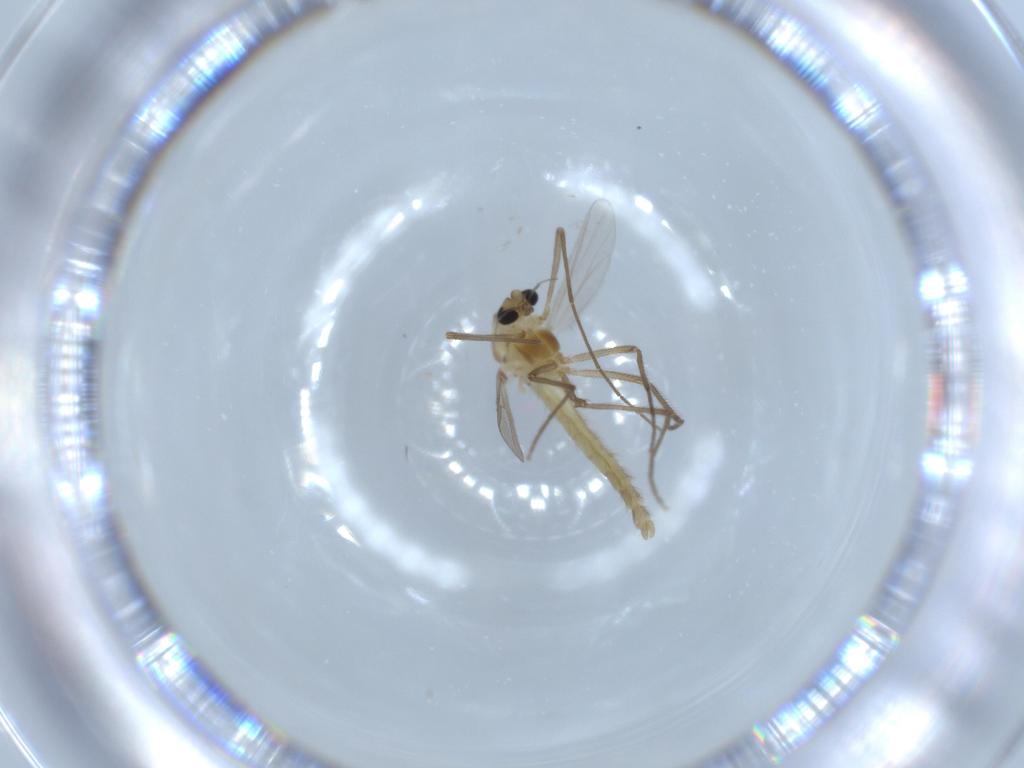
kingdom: Animalia
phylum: Arthropoda
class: Insecta
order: Diptera
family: Chironomidae
